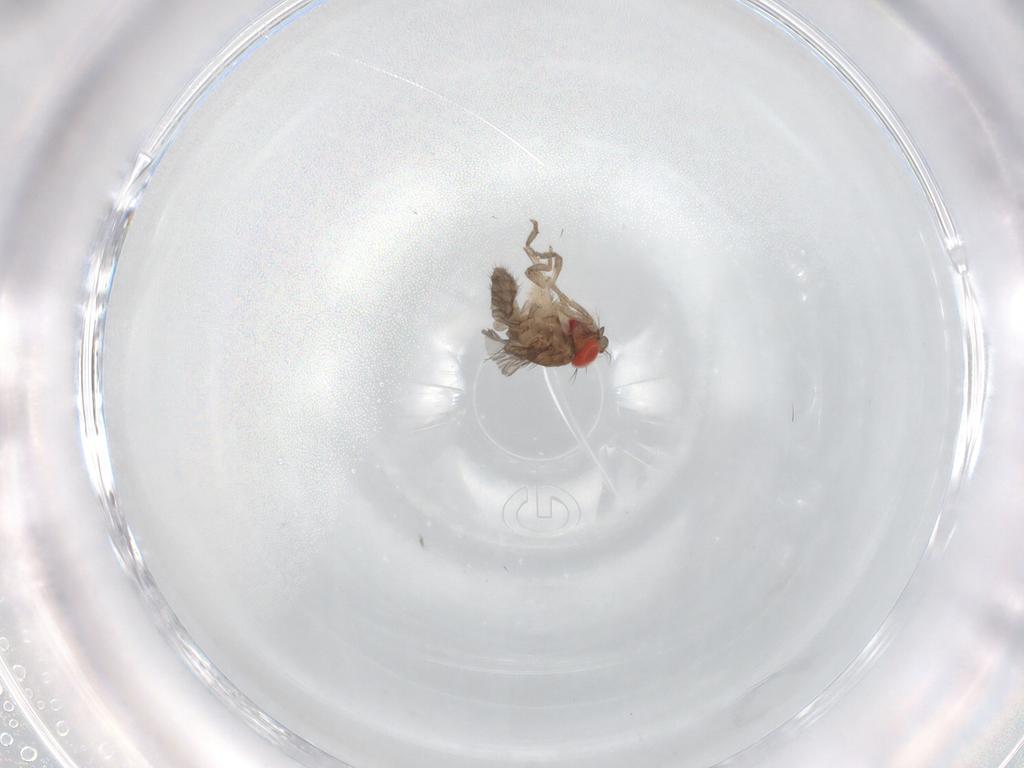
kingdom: Animalia
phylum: Arthropoda
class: Insecta
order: Diptera
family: Drosophilidae
